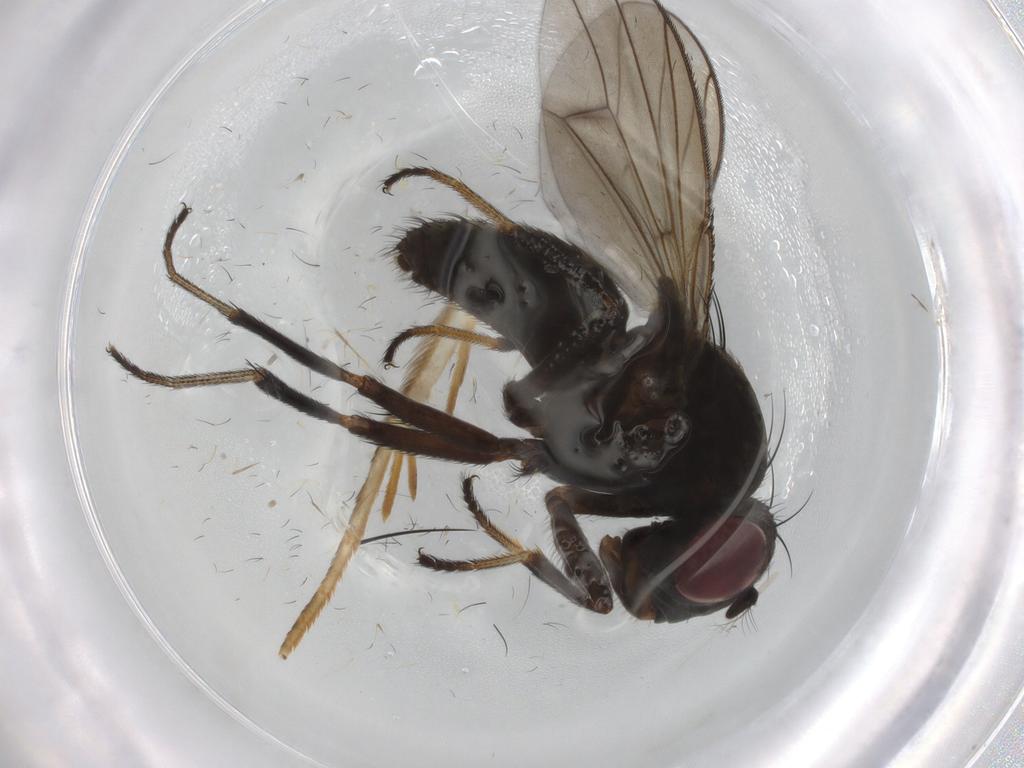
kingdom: Animalia
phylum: Arthropoda
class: Insecta
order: Diptera
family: Ephydridae
